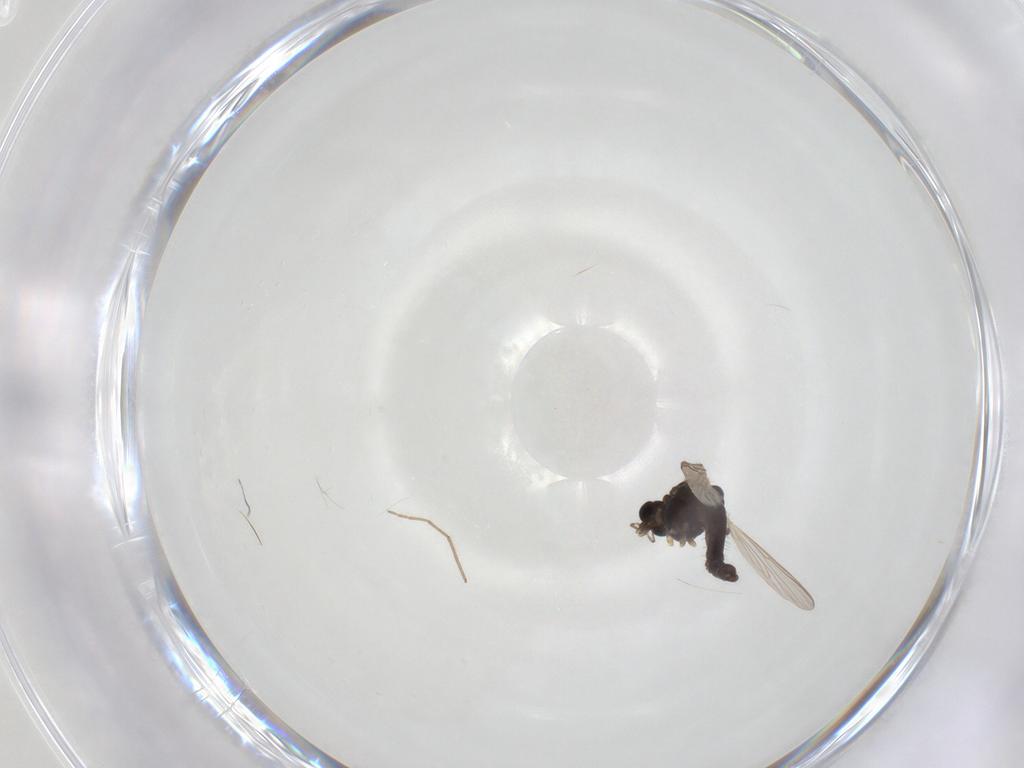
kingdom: Animalia
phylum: Arthropoda
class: Insecta
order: Diptera
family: Chironomidae
